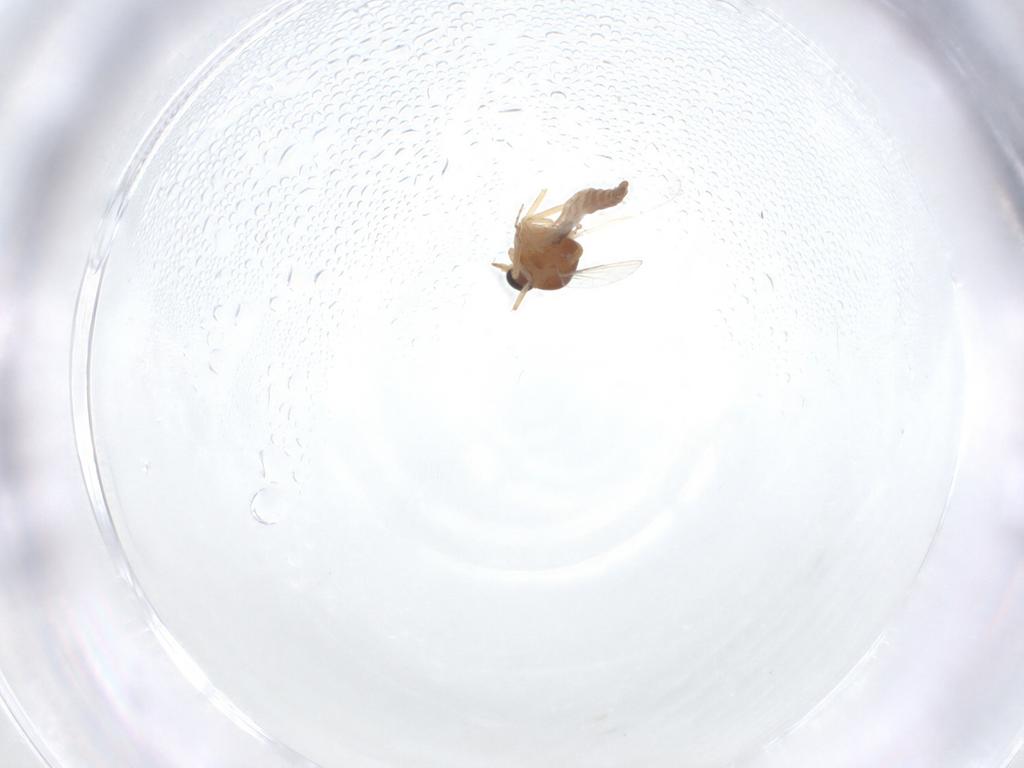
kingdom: Animalia
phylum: Arthropoda
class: Insecta
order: Diptera
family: Ceratopogonidae
